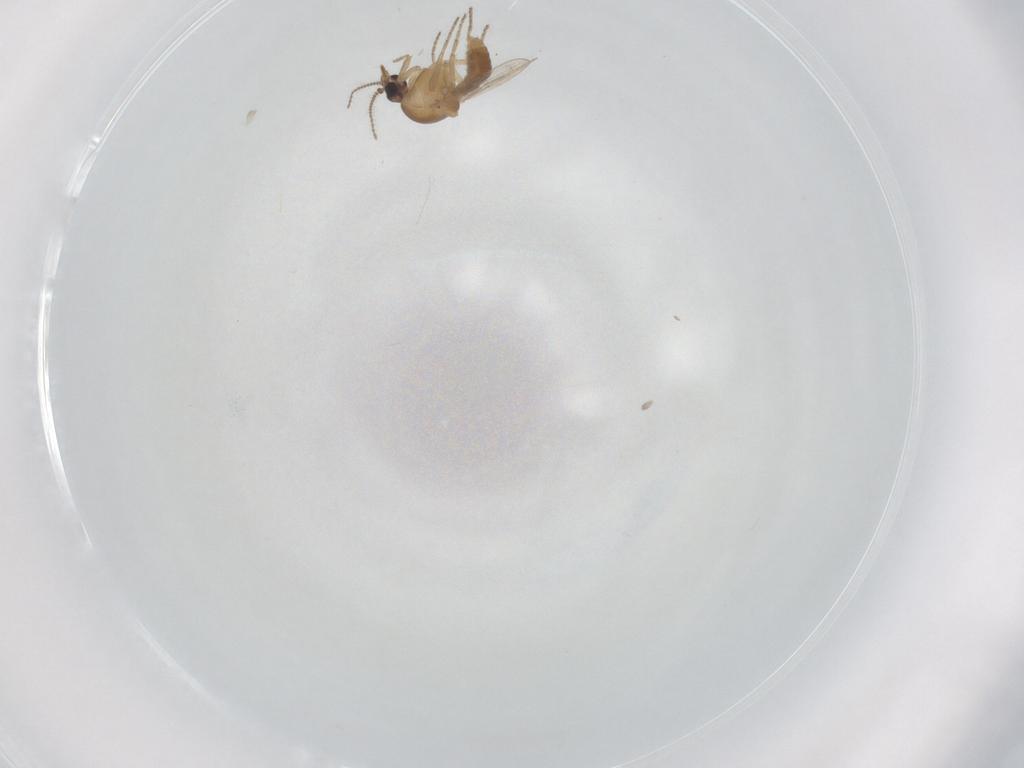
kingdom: Animalia
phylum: Arthropoda
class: Insecta
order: Diptera
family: Ceratopogonidae
